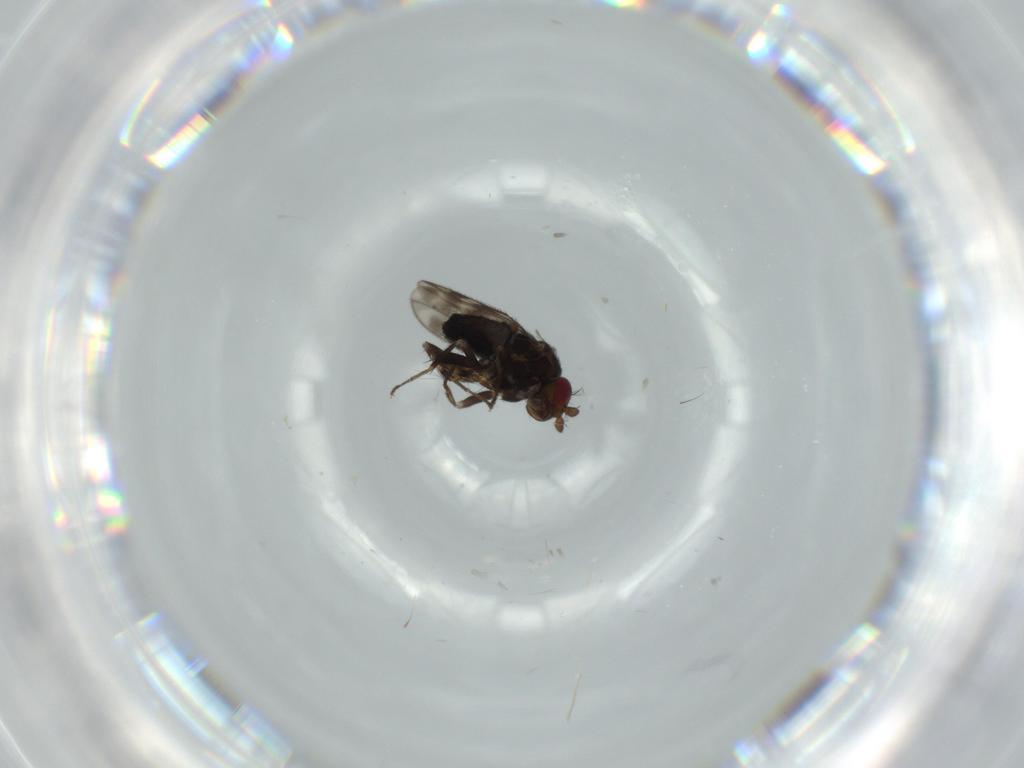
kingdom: Animalia
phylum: Arthropoda
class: Insecta
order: Diptera
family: Sphaeroceridae
